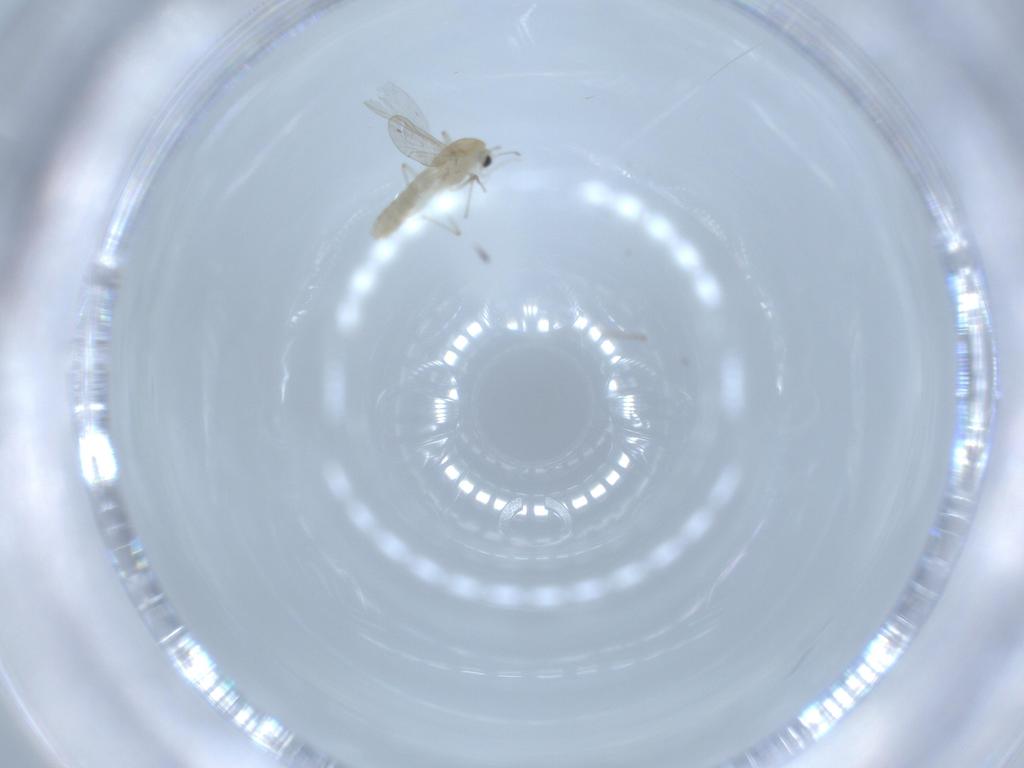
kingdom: Animalia
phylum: Arthropoda
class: Insecta
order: Diptera
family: Chironomidae
